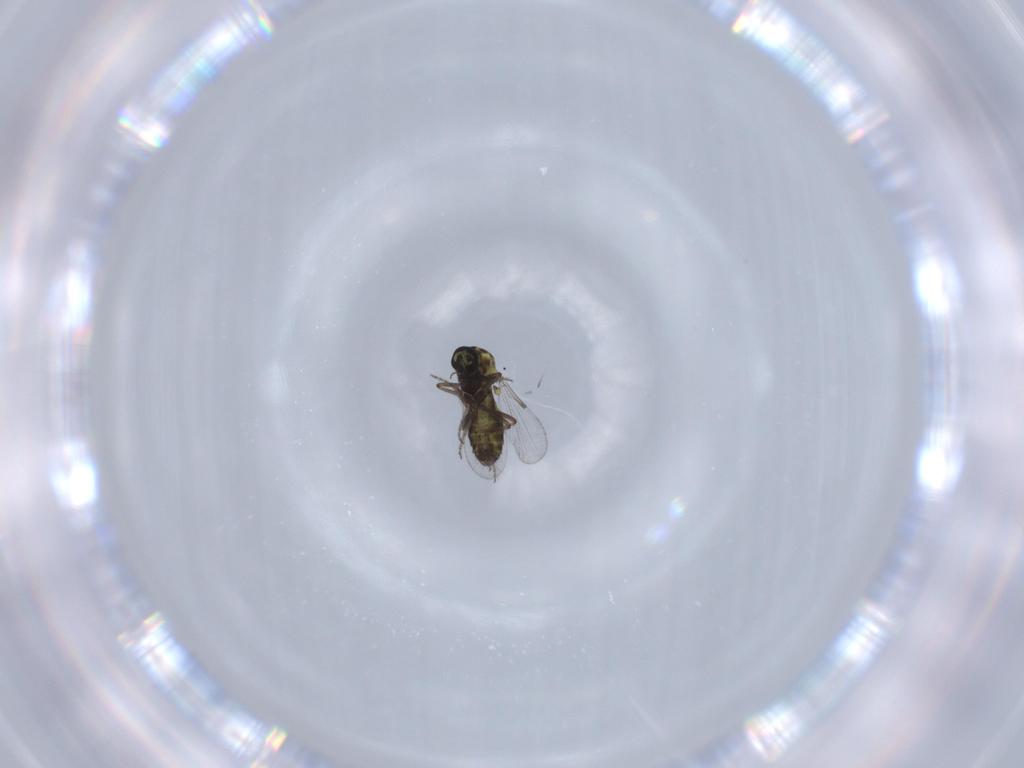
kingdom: Animalia
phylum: Arthropoda
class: Insecta
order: Diptera
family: Ceratopogonidae
